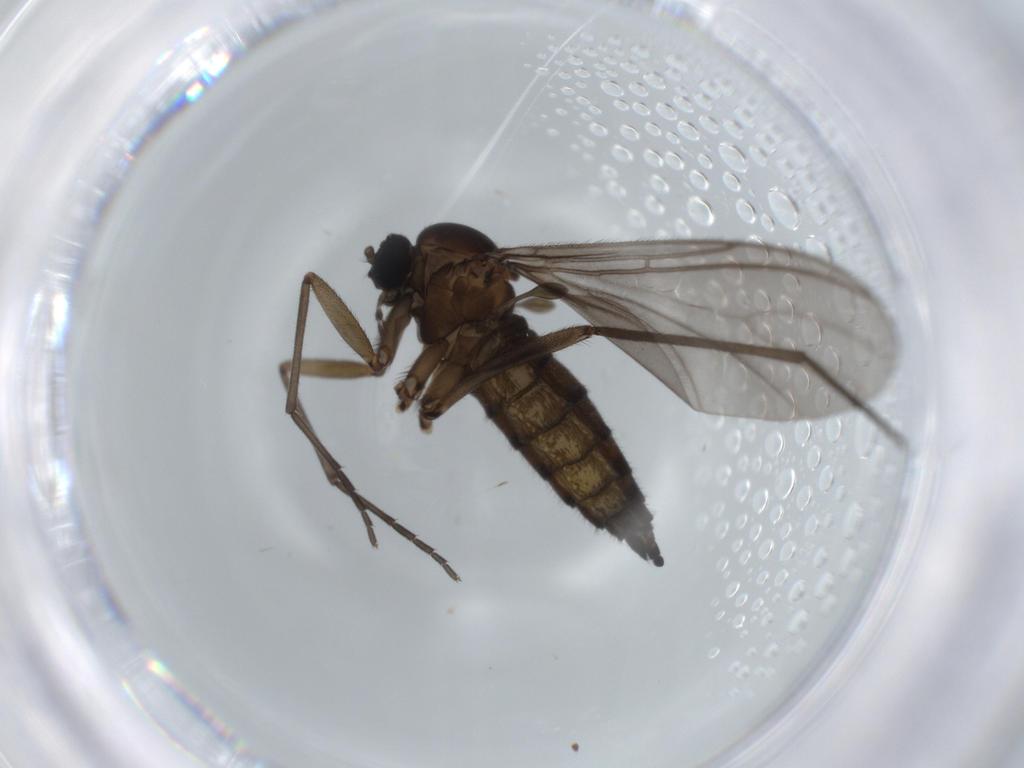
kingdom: Animalia
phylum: Arthropoda
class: Insecta
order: Diptera
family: Sciaridae
